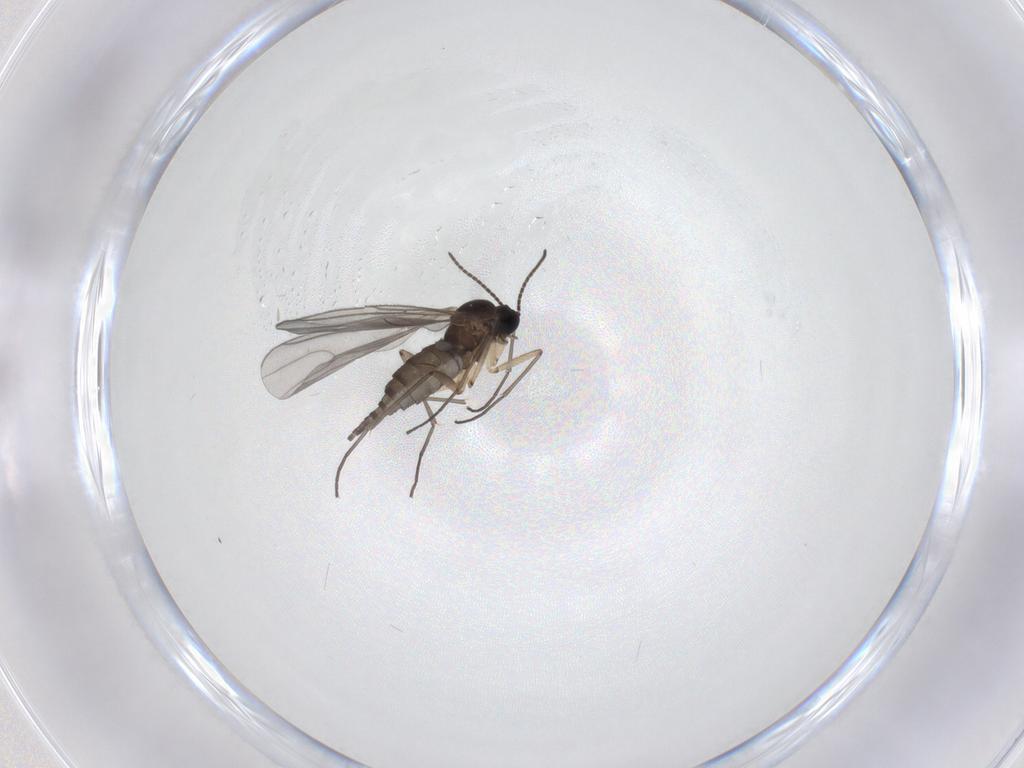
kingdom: Animalia
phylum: Arthropoda
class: Insecta
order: Diptera
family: Sciaridae
